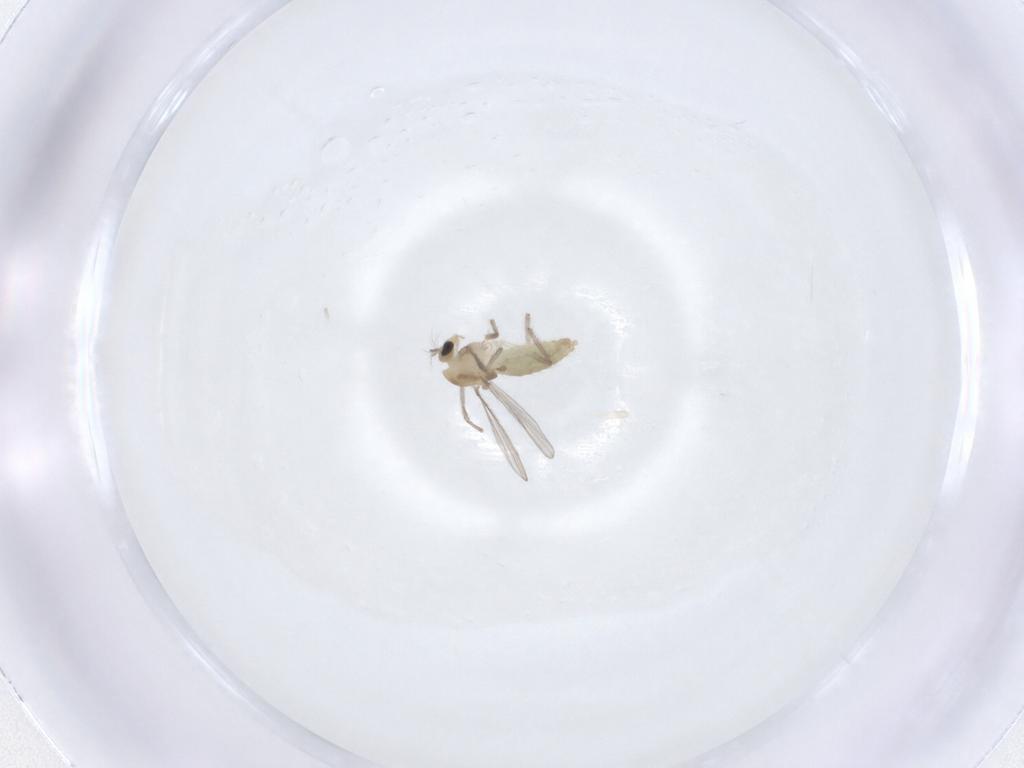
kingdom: Animalia
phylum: Arthropoda
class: Insecta
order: Diptera
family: Chironomidae
